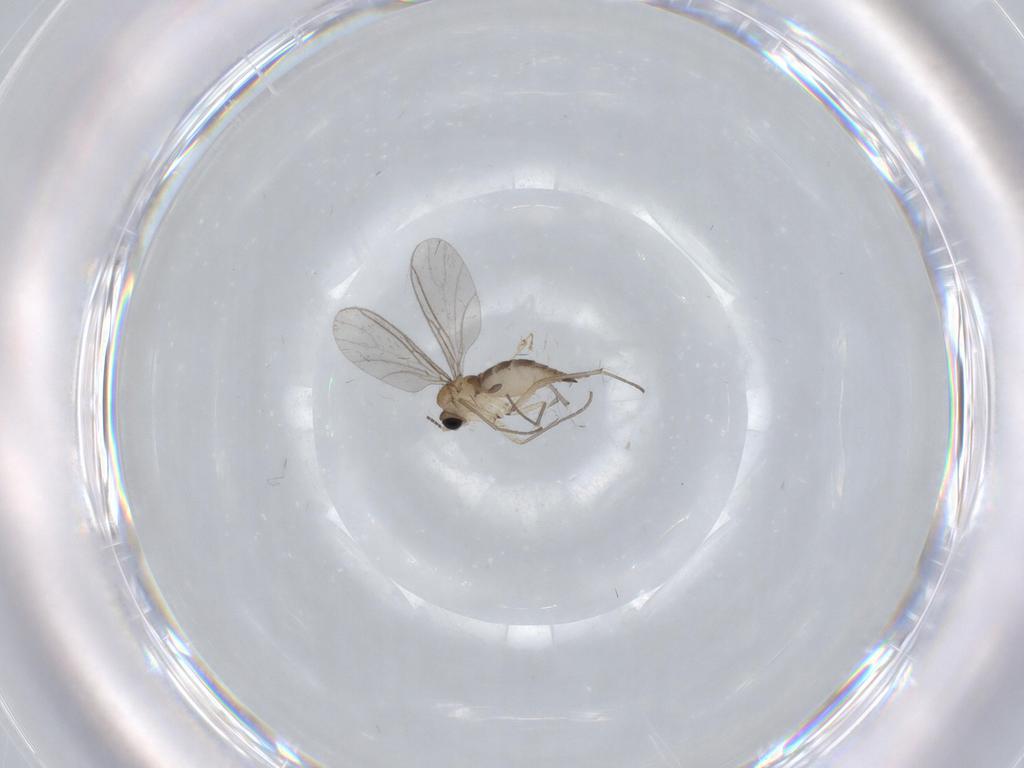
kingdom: Animalia
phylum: Arthropoda
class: Insecta
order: Diptera
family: Sciaridae
